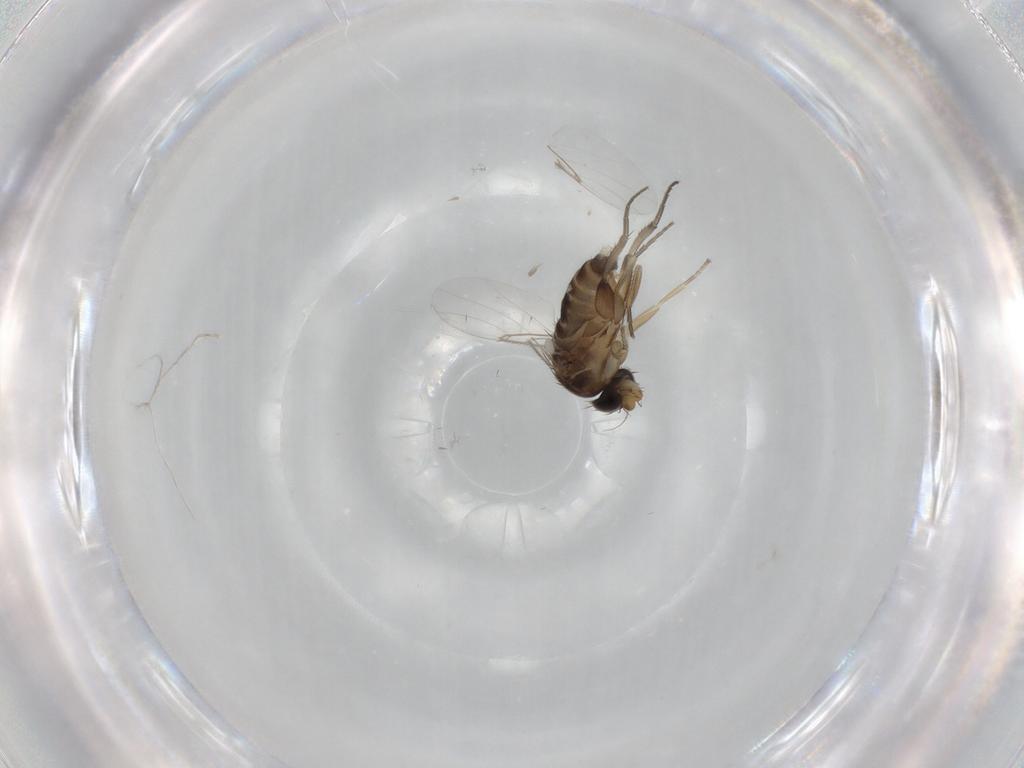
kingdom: Animalia
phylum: Arthropoda
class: Insecta
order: Diptera
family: Phoridae
